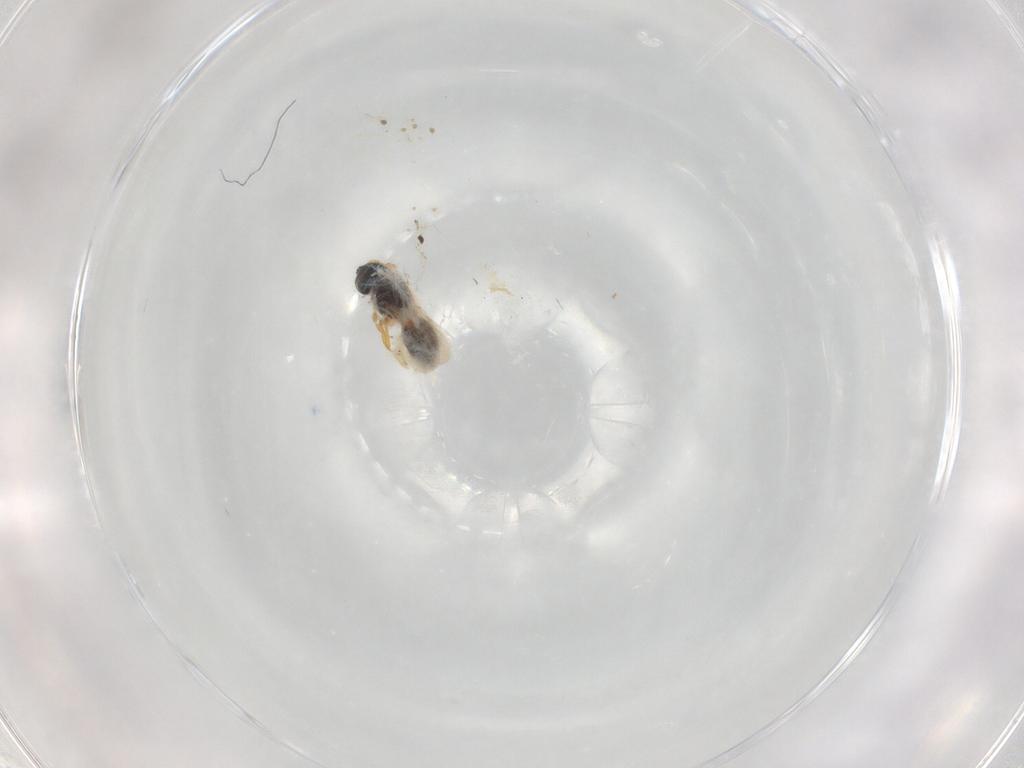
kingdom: Animalia
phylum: Arthropoda
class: Insecta
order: Hymenoptera
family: Scelionidae
